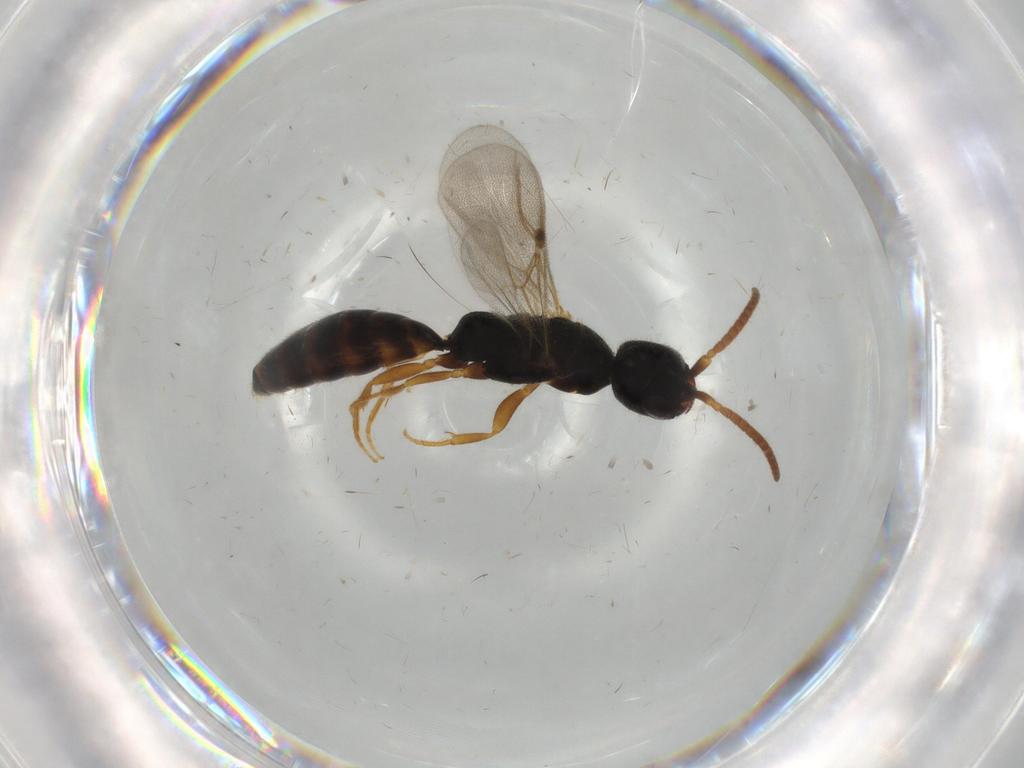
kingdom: Animalia
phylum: Arthropoda
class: Insecta
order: Hymenoptera
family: Bethylidae
